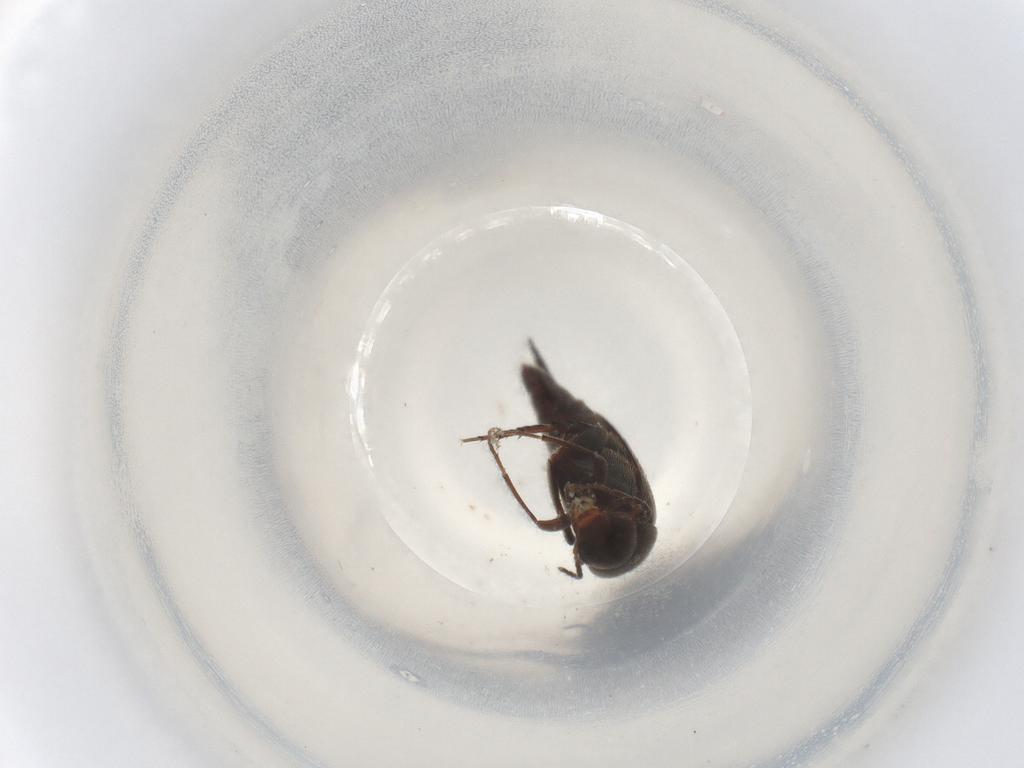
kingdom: Animalia
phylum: Arthropoda
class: Insecta
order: Coleoptera
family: Mordellidae
